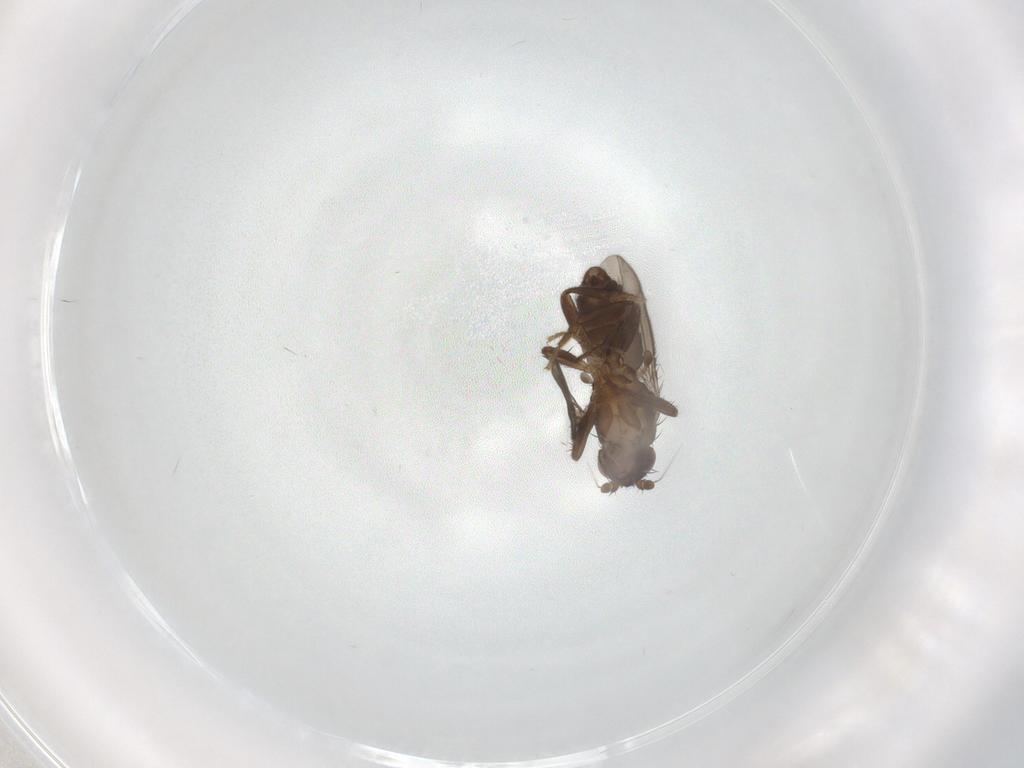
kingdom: Animalia
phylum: Arthropoda
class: Insecta
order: Diptera
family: Sphaeroceridae
